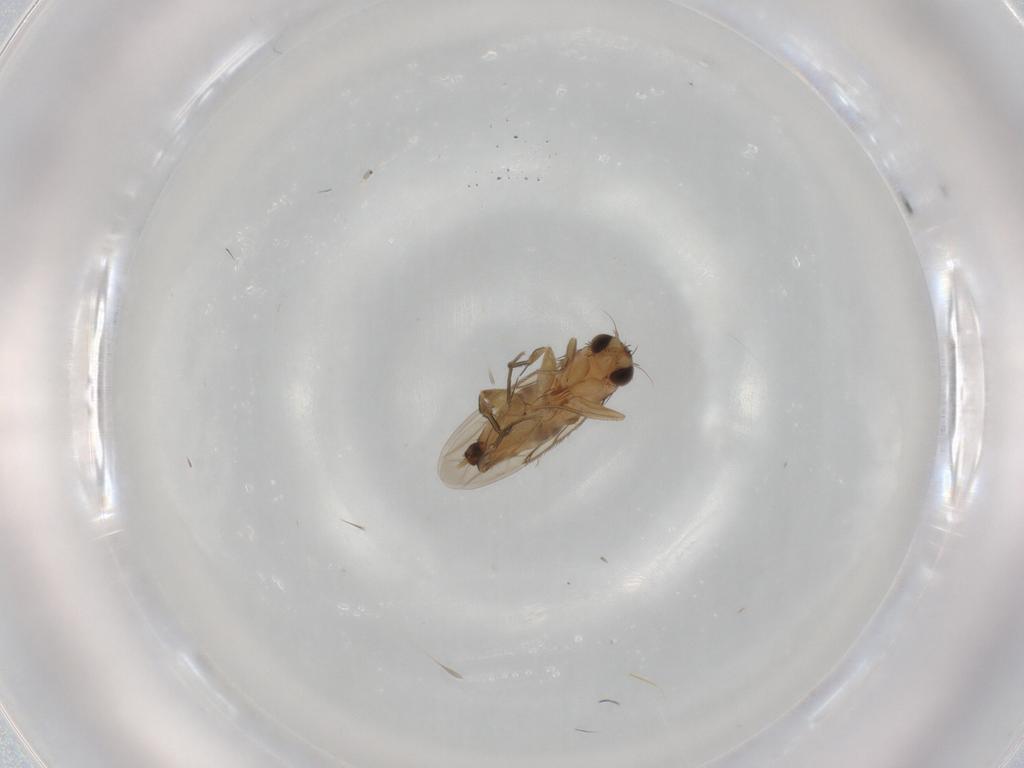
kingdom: Animalia
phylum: Arthropoda
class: Insecta
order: Diptera
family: Phoridae
